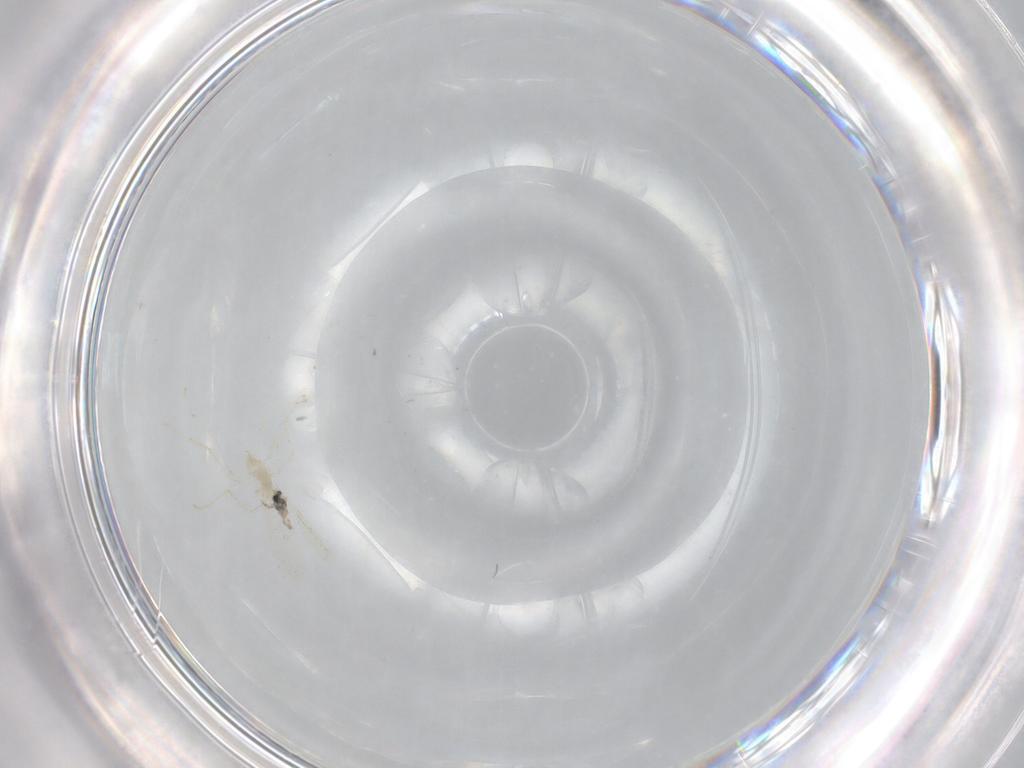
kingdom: Animalia
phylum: Arthropoda
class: Insecta
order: Diptera
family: Cecidomyiidae
